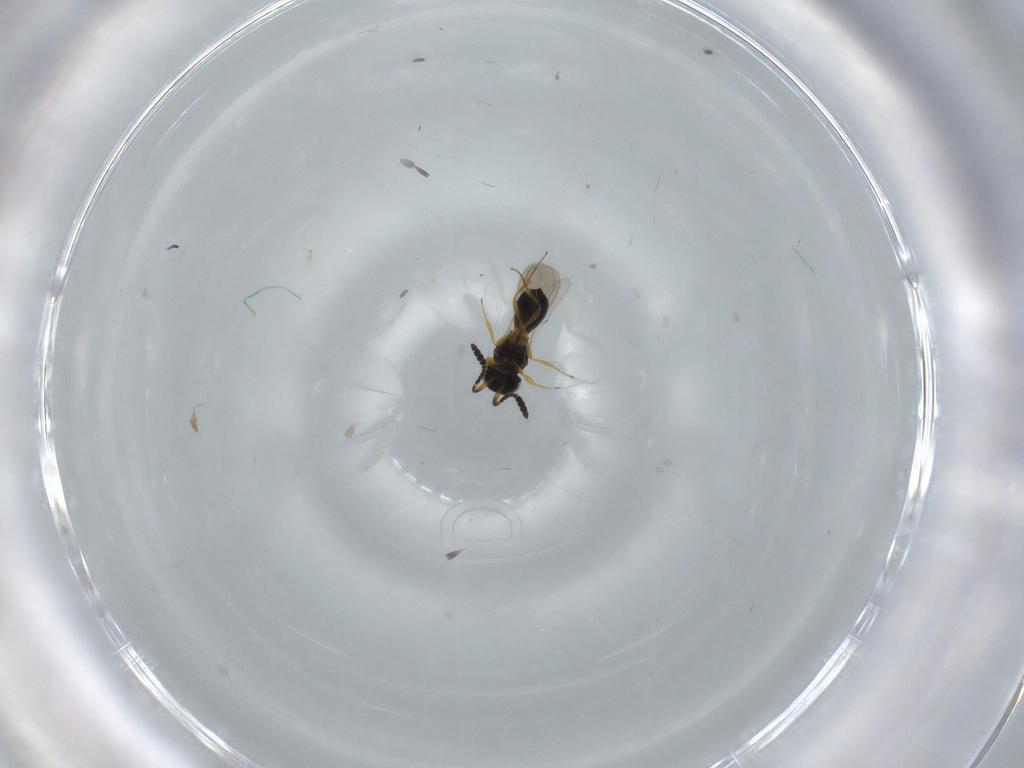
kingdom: Animalia
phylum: Arthropoda
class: Insecta
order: Hymenoptera
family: Scelionidae
